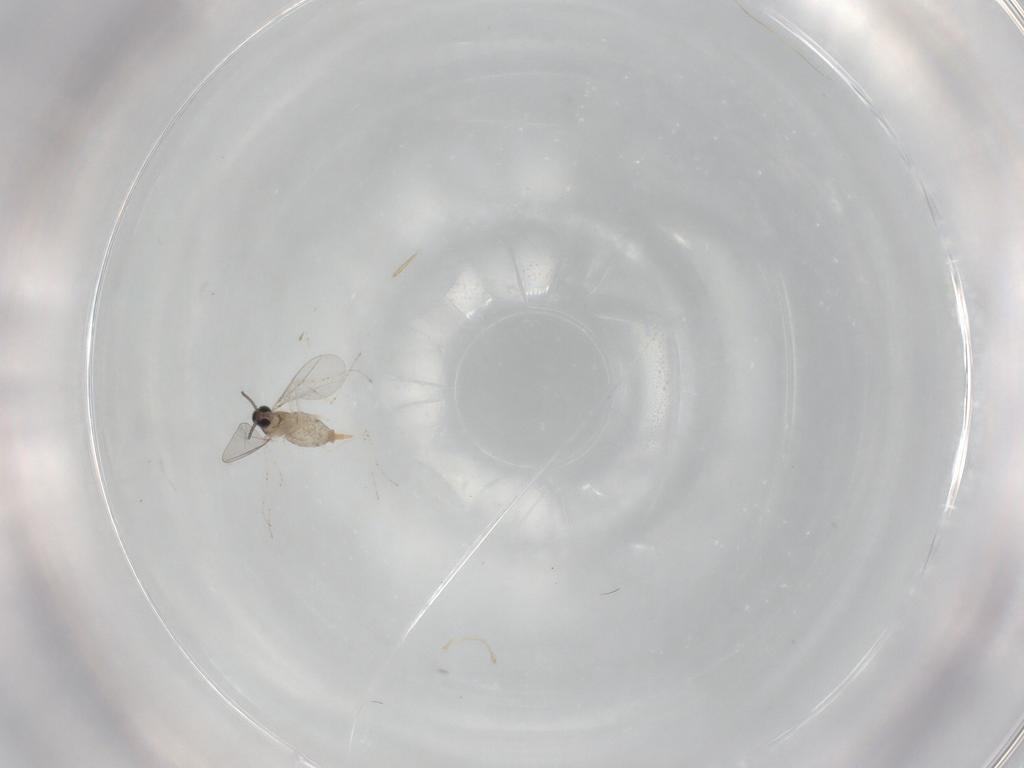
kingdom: Animalia
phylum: Arthropoda
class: Insecta
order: Diptera
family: Cecidomyiidae
